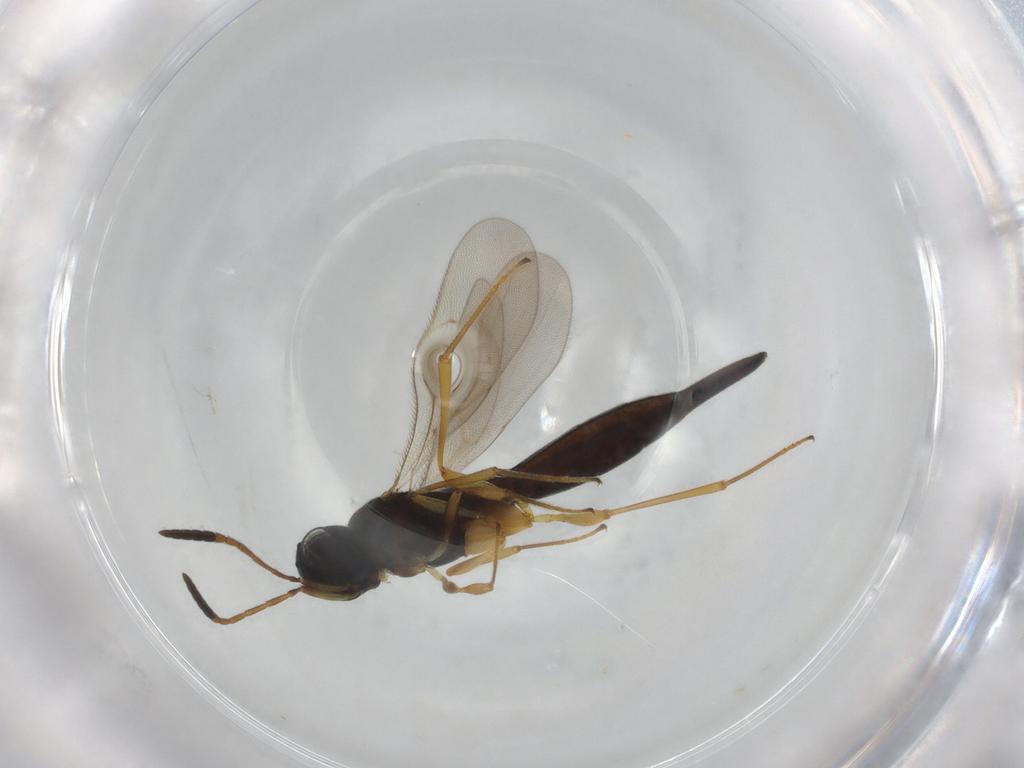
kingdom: Animalia
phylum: Arthropoda
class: Insecta
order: Hymenoptera
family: Scelionidae
